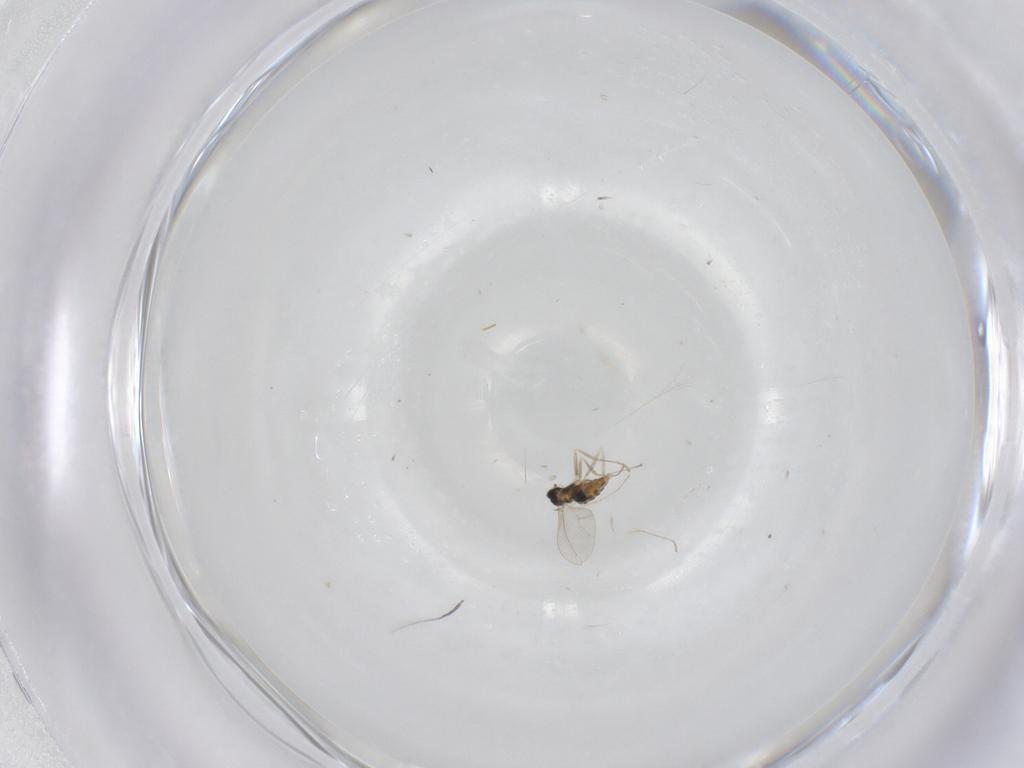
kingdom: Animalia
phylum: Arthropoda
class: Insecta
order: Diptera
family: Cecidomyiidae
